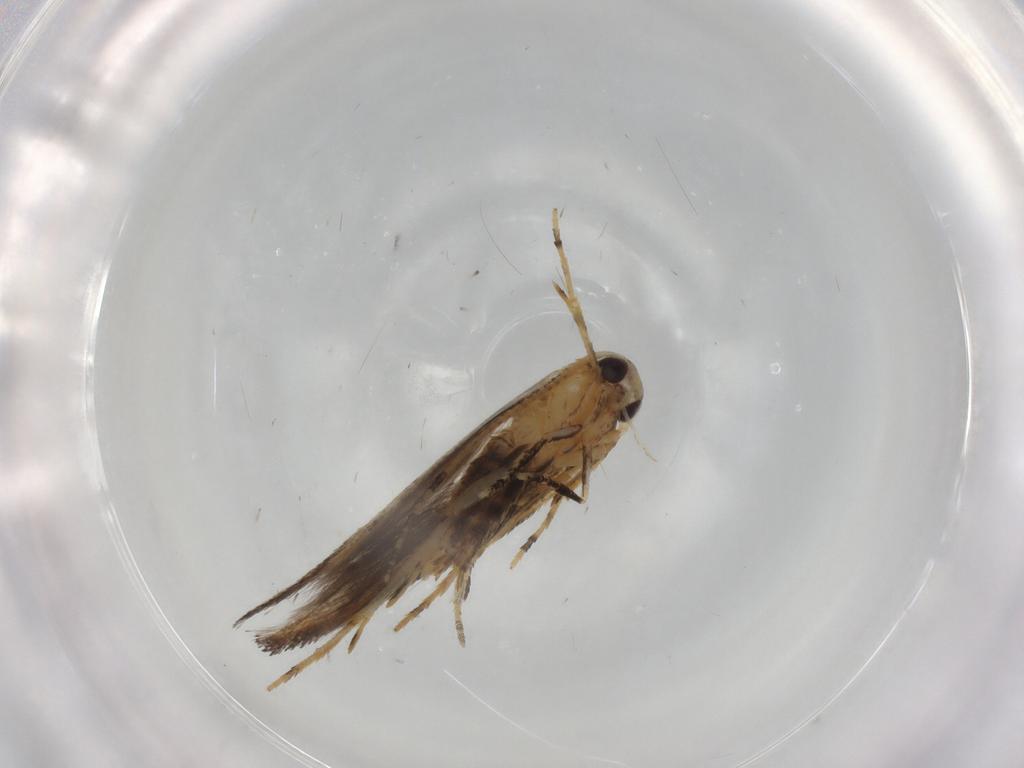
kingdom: Animalia
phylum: Arthropoda
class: Insecta
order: Lepidoptera
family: Cosmopterigidae
